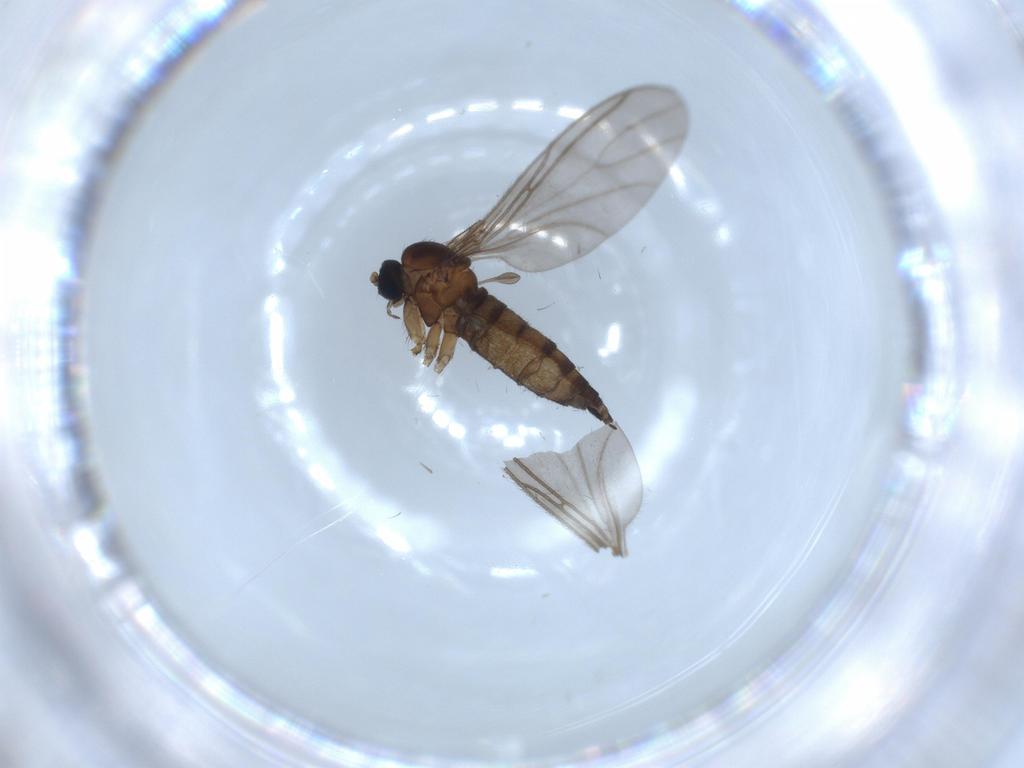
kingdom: Animalia
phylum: Arthropoda
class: Insecta
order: Diptera
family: Sciaridae
